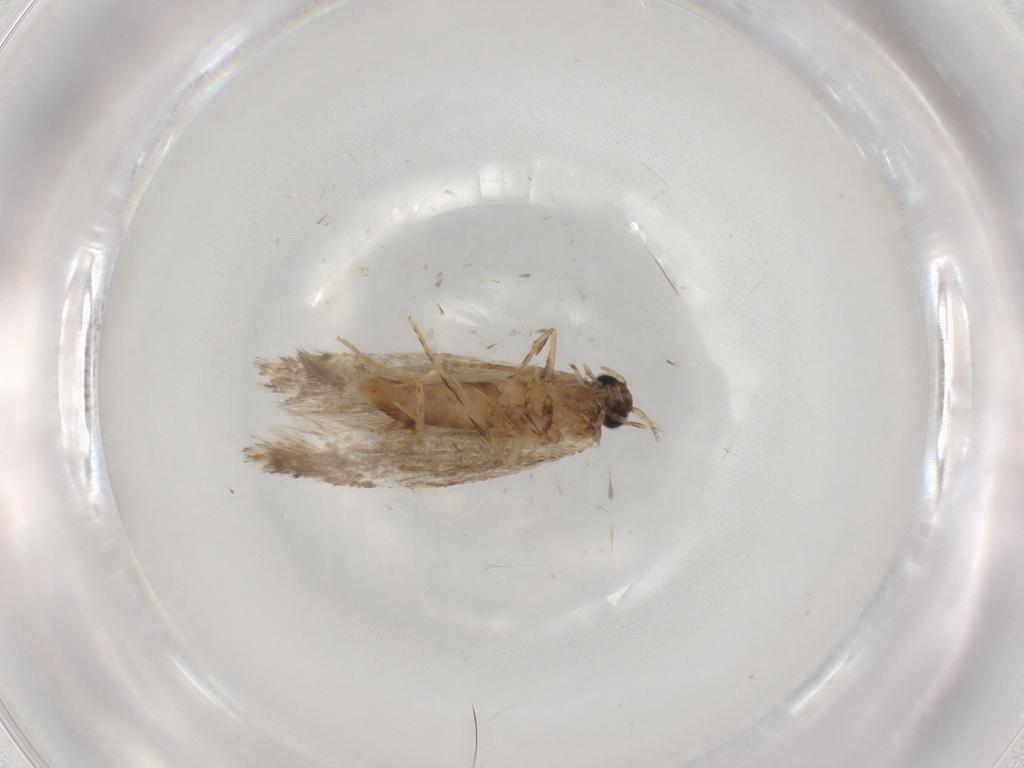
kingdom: Animalia
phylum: Arthropoda
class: Insecta
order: Lepidoptera
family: Tineidae
